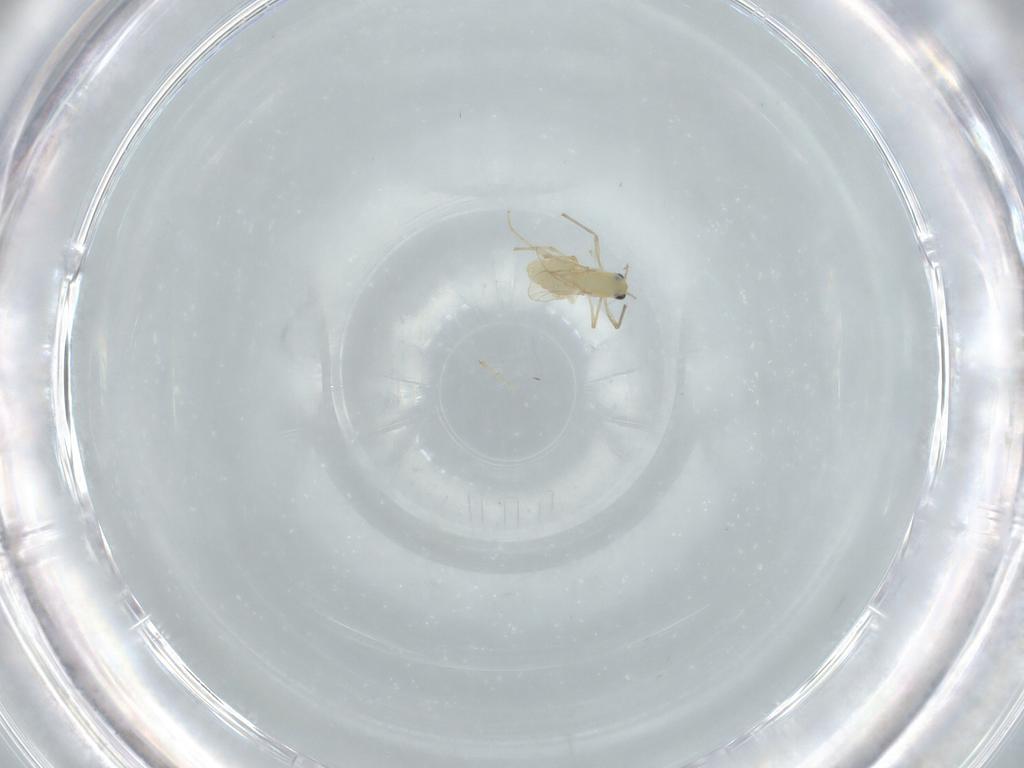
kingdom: Animalia
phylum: Arthropoda
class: Insecta
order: Diptera
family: Chironomidae
